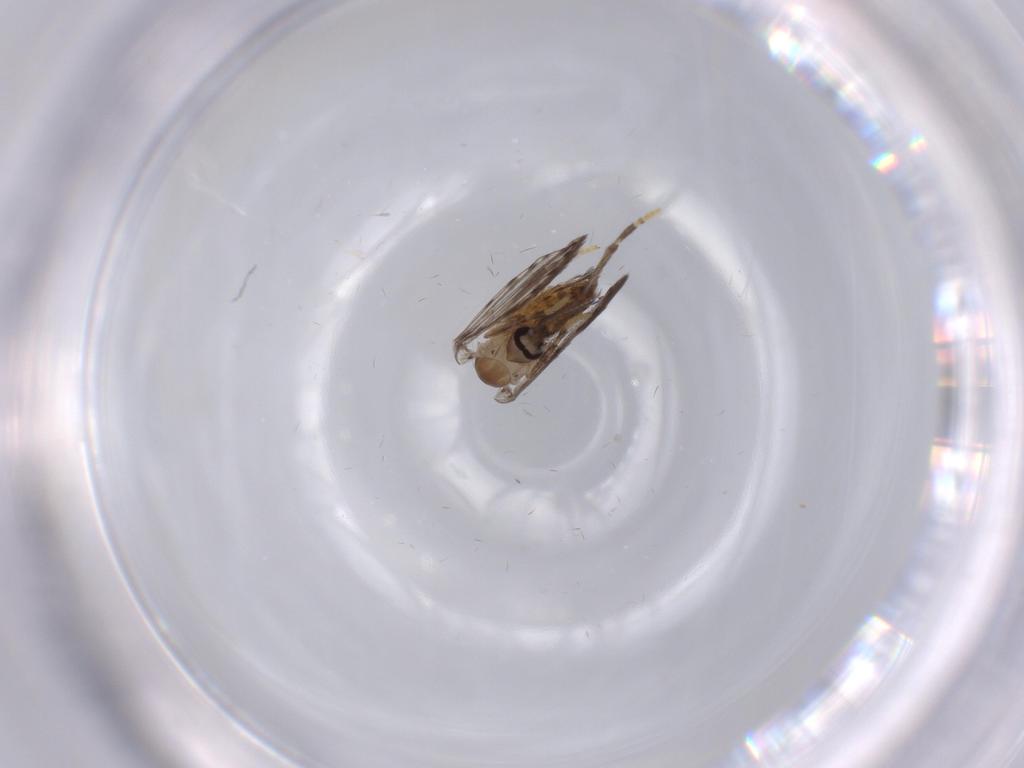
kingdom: Animalia
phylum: Arthropoda
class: Insecta
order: Diptera
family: Psychodidae
